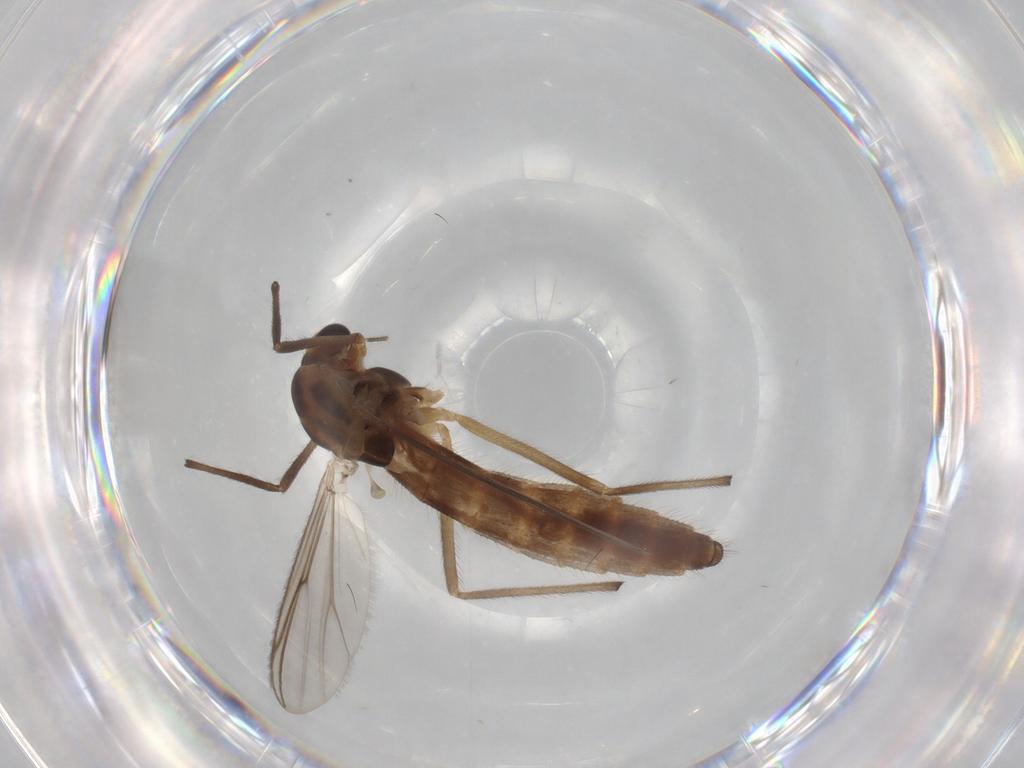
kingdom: Animalia
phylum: Arthropoda
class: Insecta
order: Diptera
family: Chironomidae
